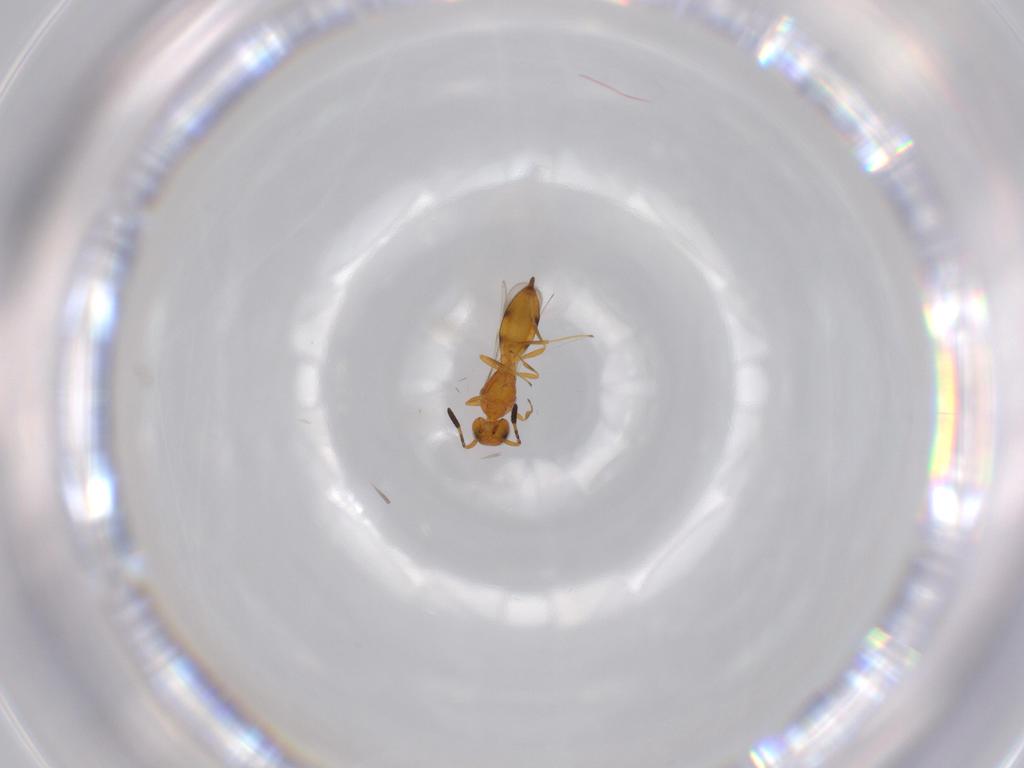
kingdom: Animalia
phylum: Arthropoda
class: Insecta
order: Hymenoptera
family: Scelionidae
